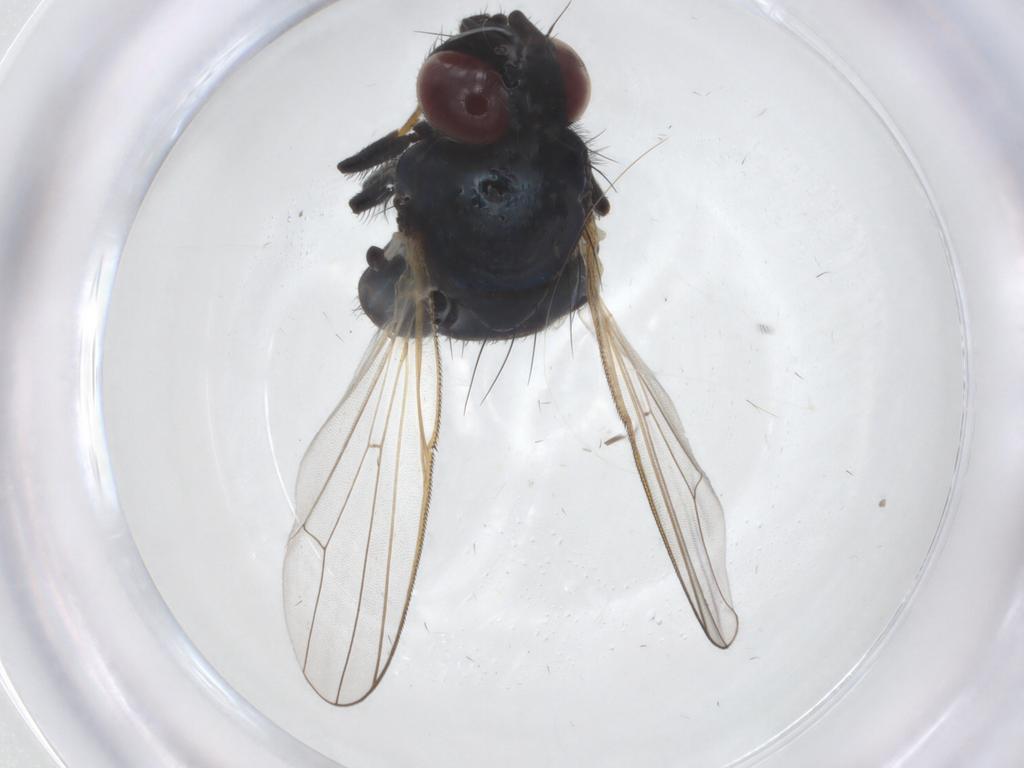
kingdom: Animalia
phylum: Arthropoda
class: Insecta
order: Diptera
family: Lonchaeidae
